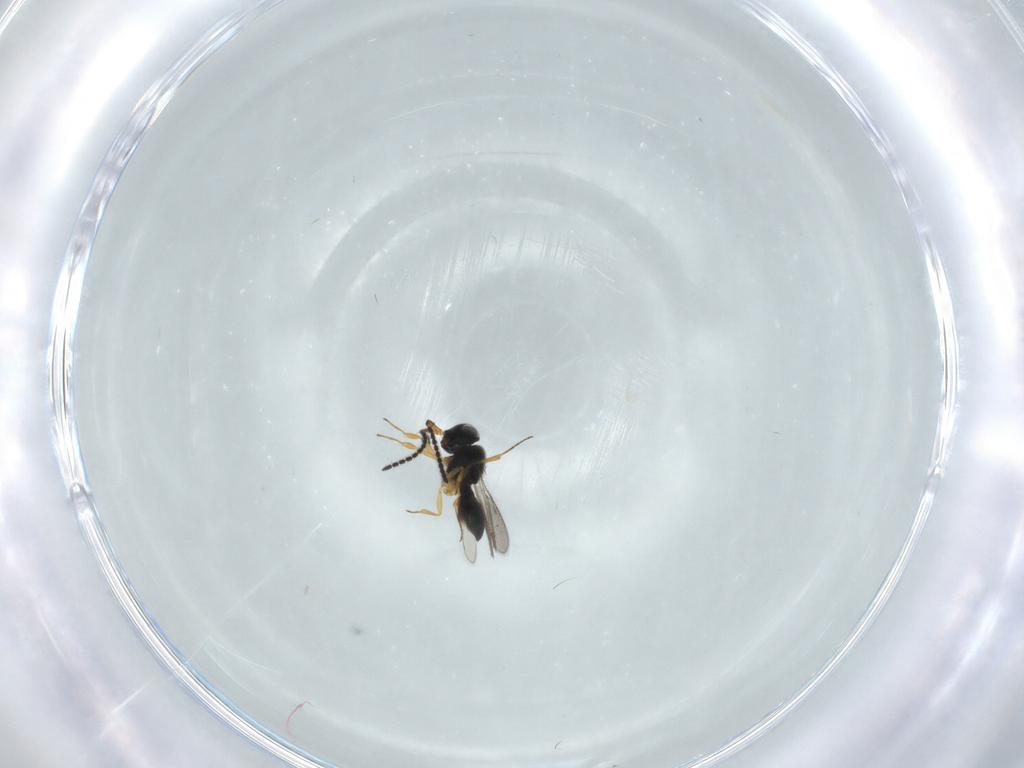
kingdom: Animalia
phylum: Arthropoda
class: Insecta
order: Hymenoptera
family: Scelionidae
